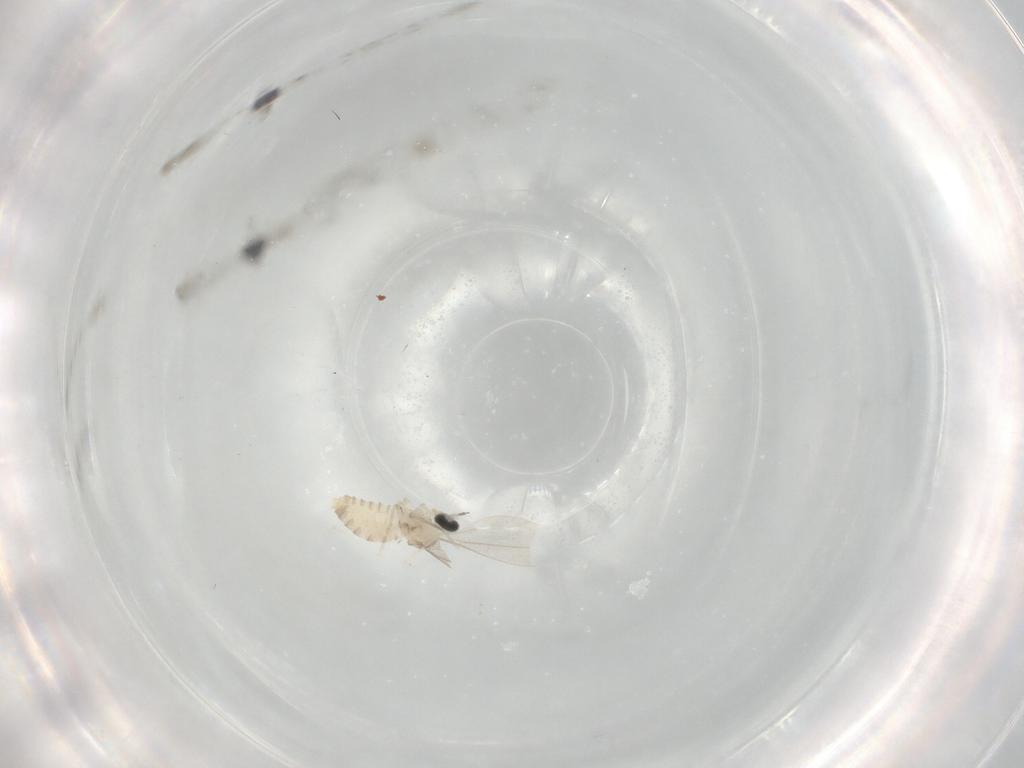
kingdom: Animalia
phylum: Arthropoda
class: Insecta
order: Diptera
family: Cecidomyiidae
